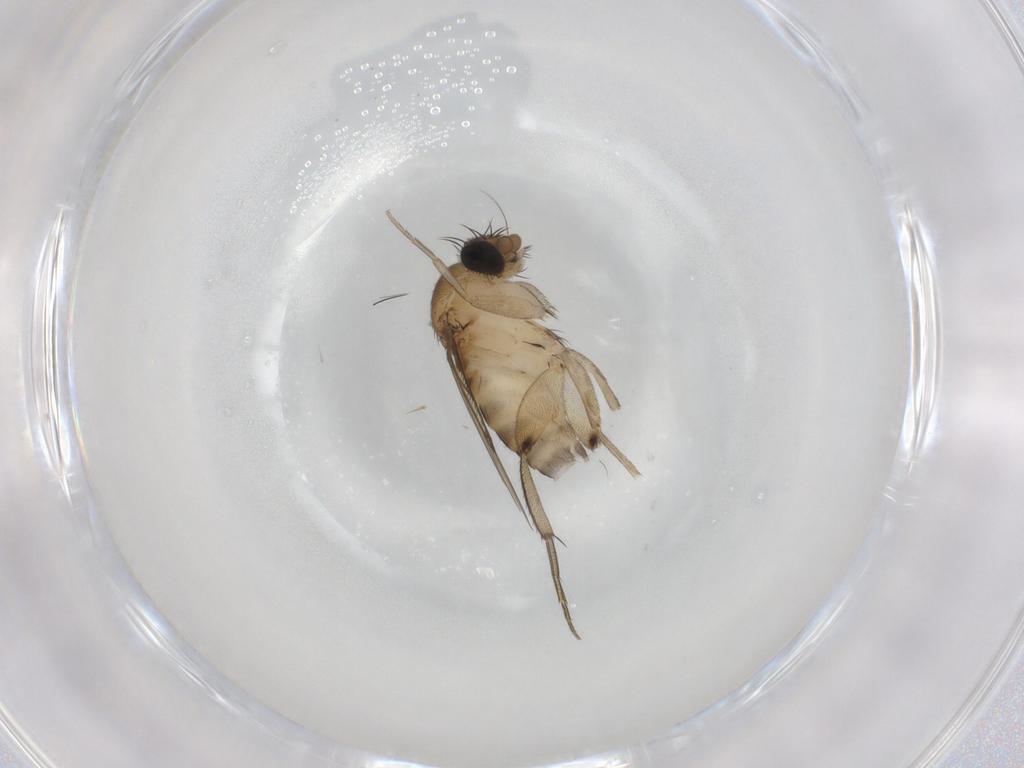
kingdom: Animalia
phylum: Arthropoda
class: Insecta
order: Diptera
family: Phoridae
